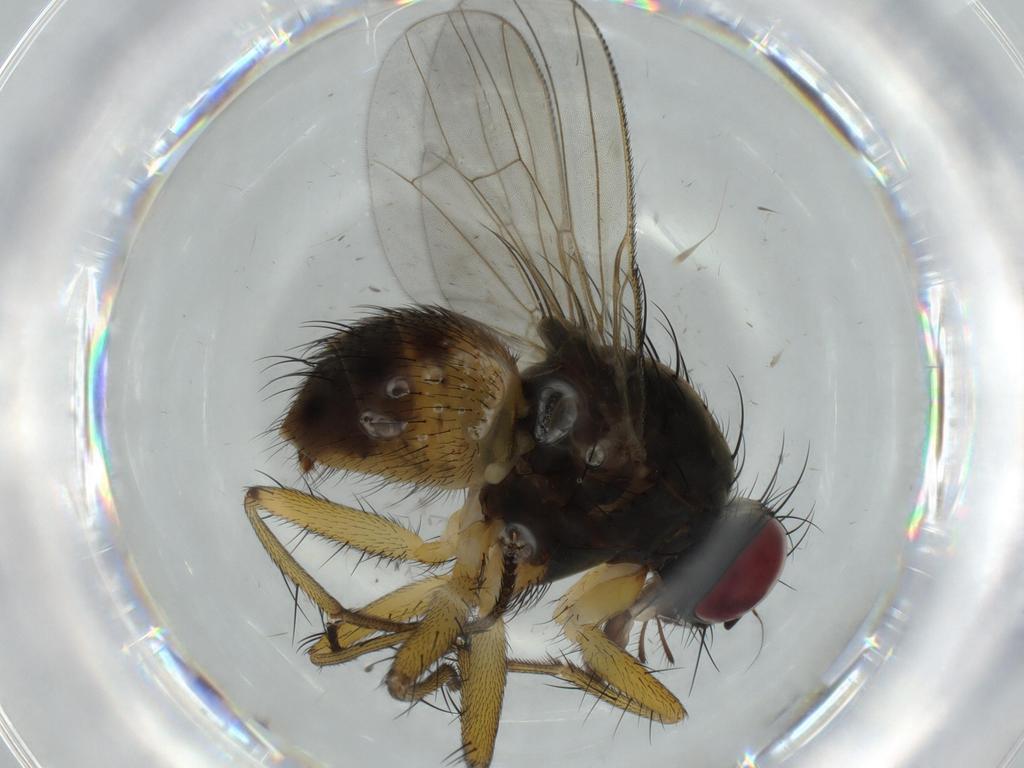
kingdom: Animalia
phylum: Arthropoda
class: Insecta
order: Diptera
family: Muscidae
